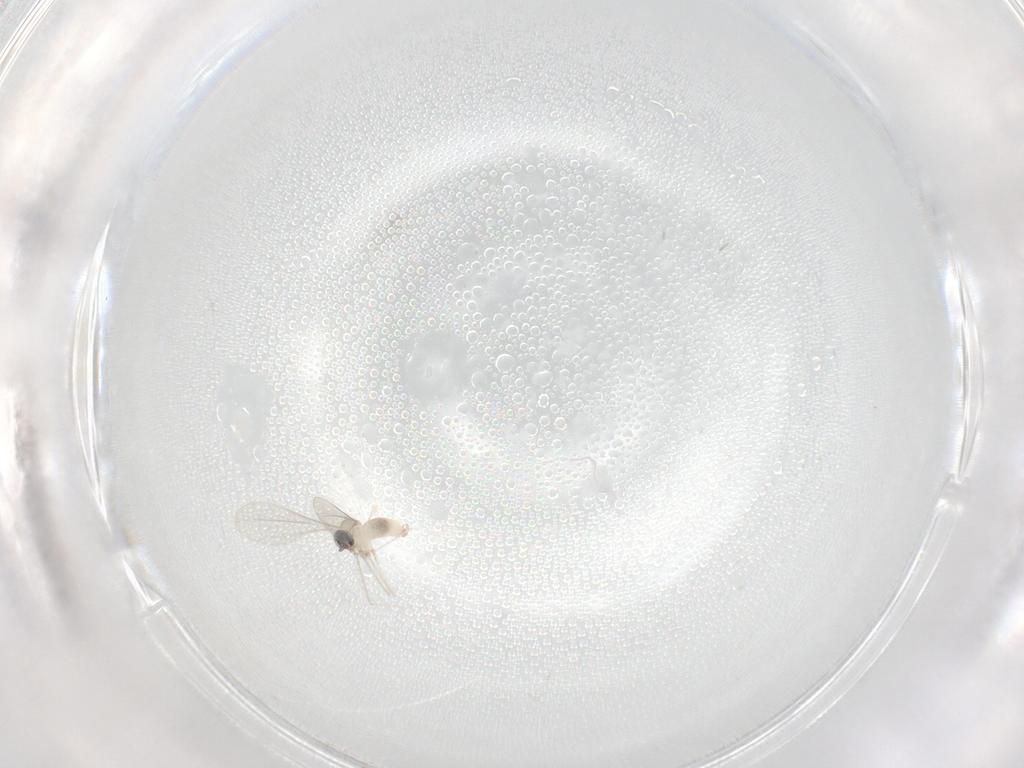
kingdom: Animalia
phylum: Arthropoda
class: Insecta
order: Diptera
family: Cecidomyiidae
